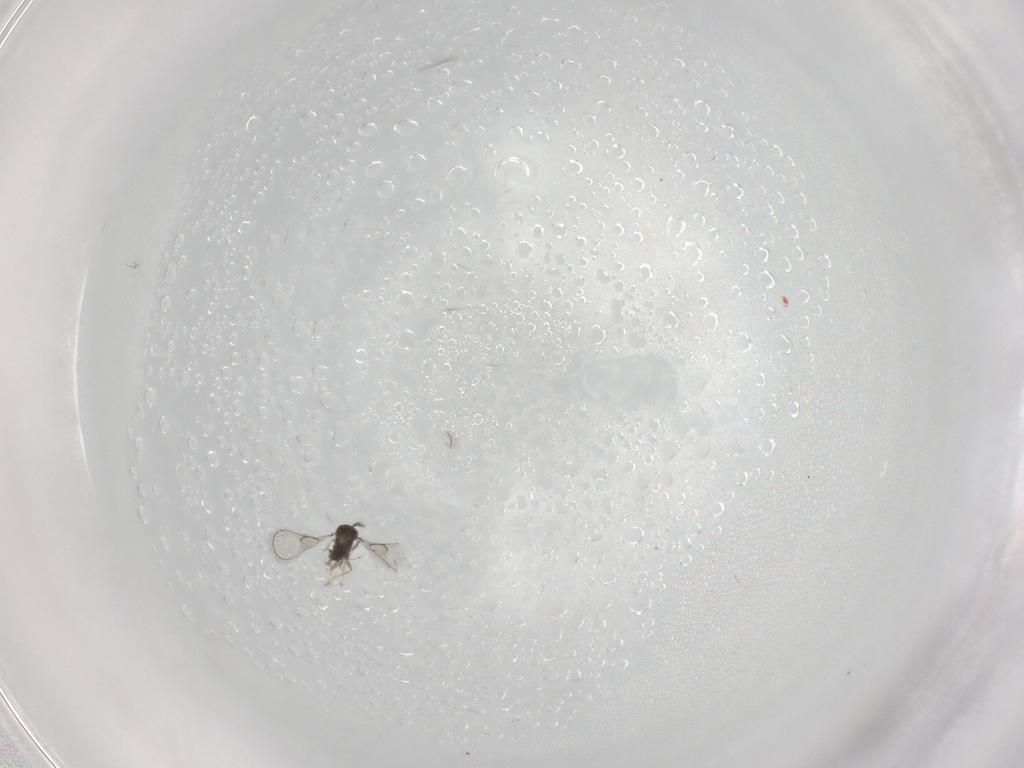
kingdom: Animalia
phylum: Arthropoda
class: Insecta
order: Hymenoptera
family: Trichogrammatidae
